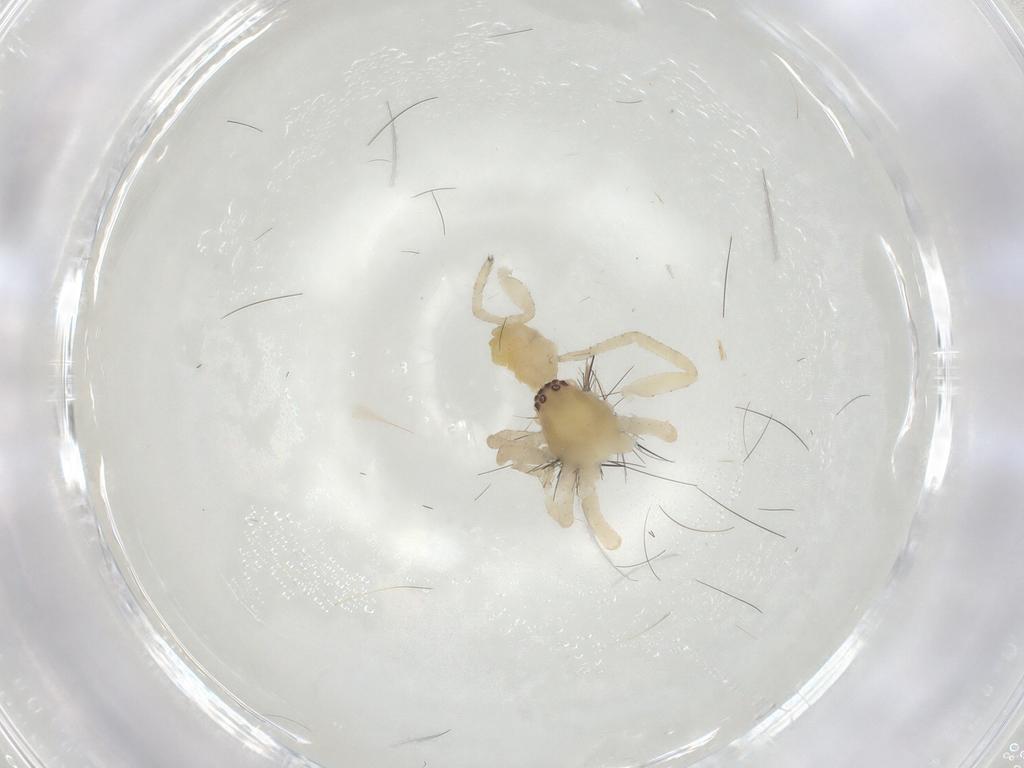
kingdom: Animalia
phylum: Arthropoda
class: Arachnida
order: Araneae
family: Clubionidae
